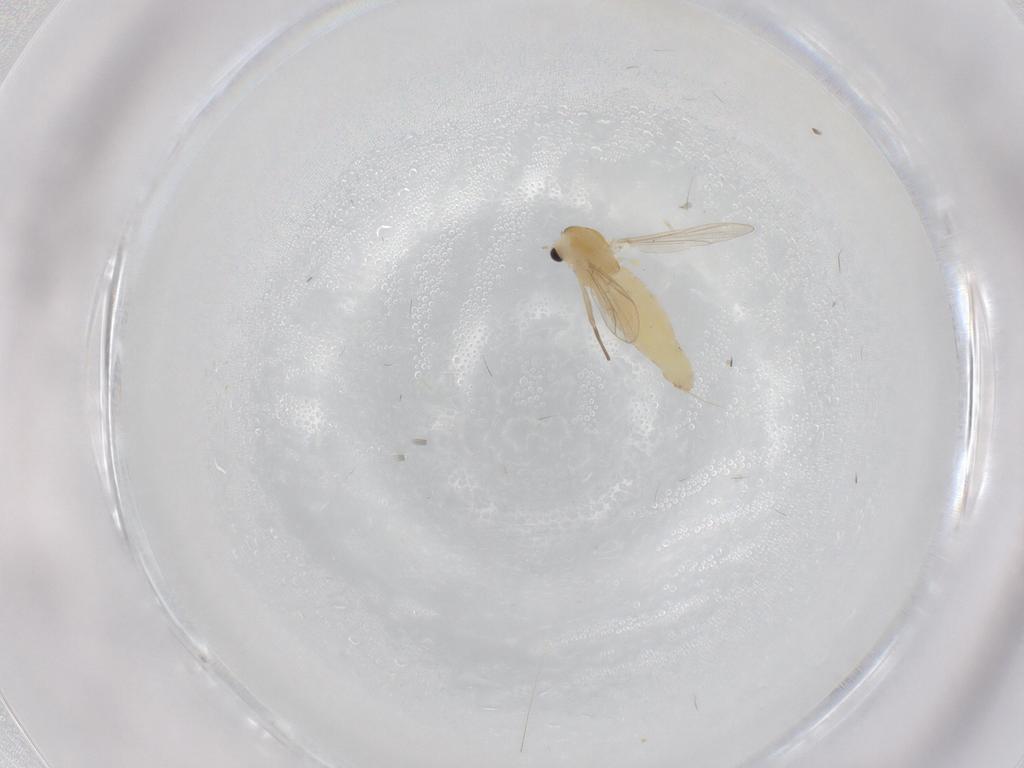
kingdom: Animalia
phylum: Arthropoda
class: Insecta
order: Diptera
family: Chironomidae
